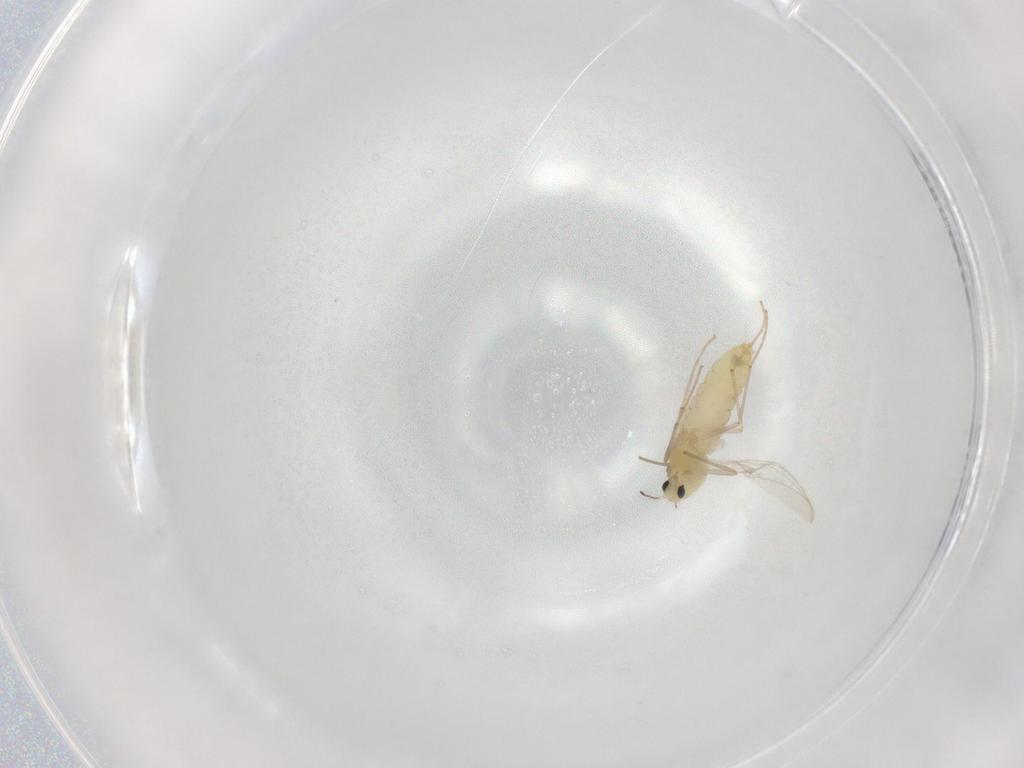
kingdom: Animalia
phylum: Arthropoda
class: Insecta
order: Diptera
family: Chironomidae
